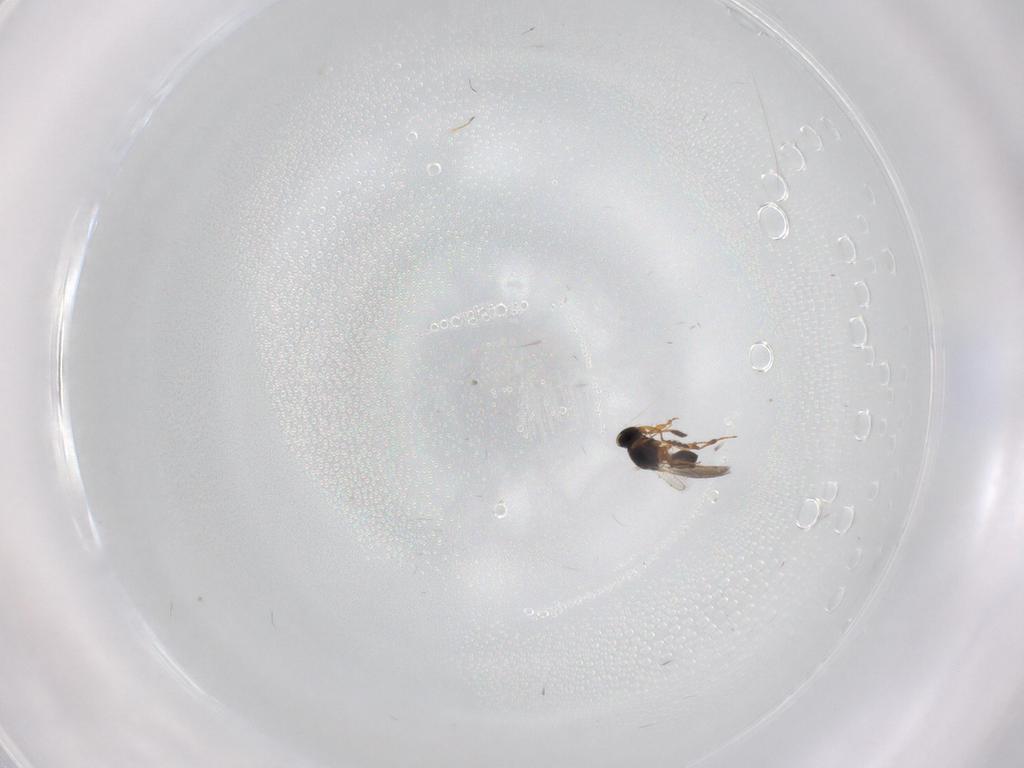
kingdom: Animalia
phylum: Arthropoda
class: Insecta
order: Hymenoptera
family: Platygastridae
